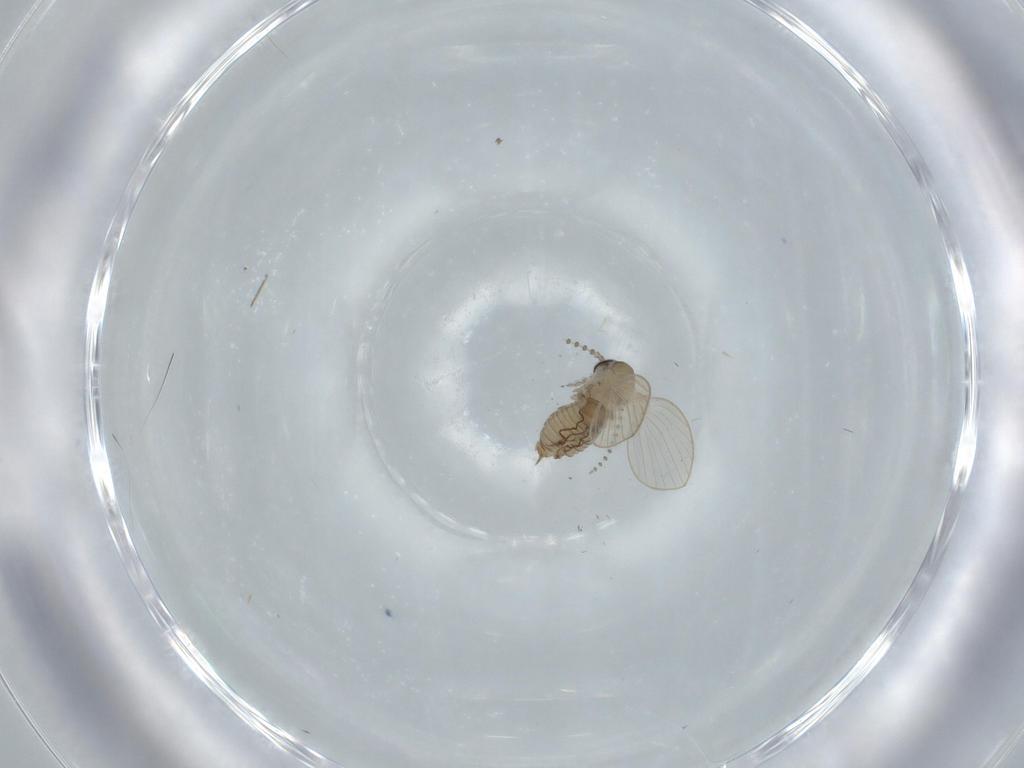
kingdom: Animalia
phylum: Arthropoda
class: Insecta
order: Diptera
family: Psychodidae
